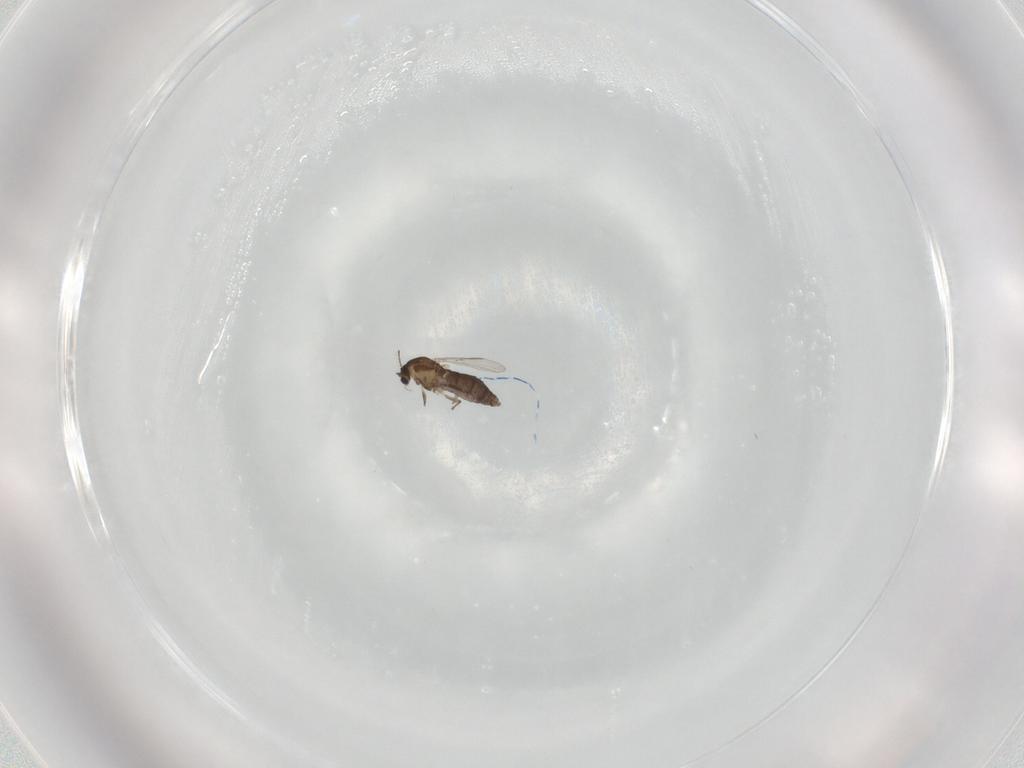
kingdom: Animalia
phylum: Arthropoda
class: Insecta
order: Diptera
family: Chironomidae
